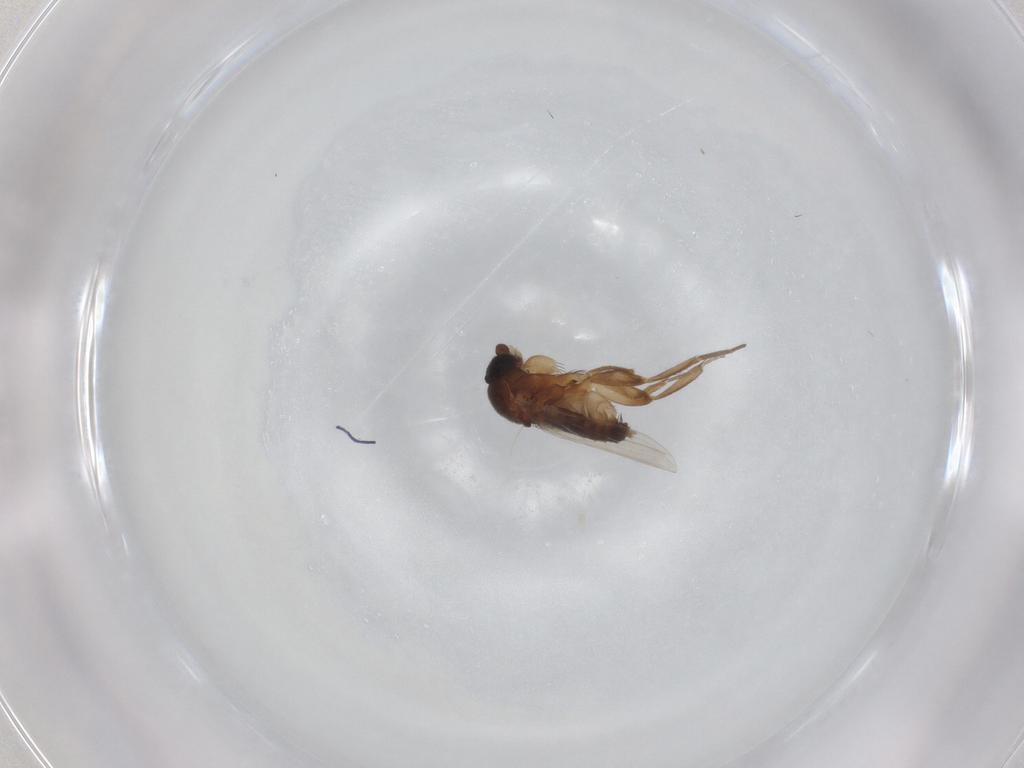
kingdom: Animalia
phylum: Arthropoda
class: Insecta
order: Diptera
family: Phoridae
